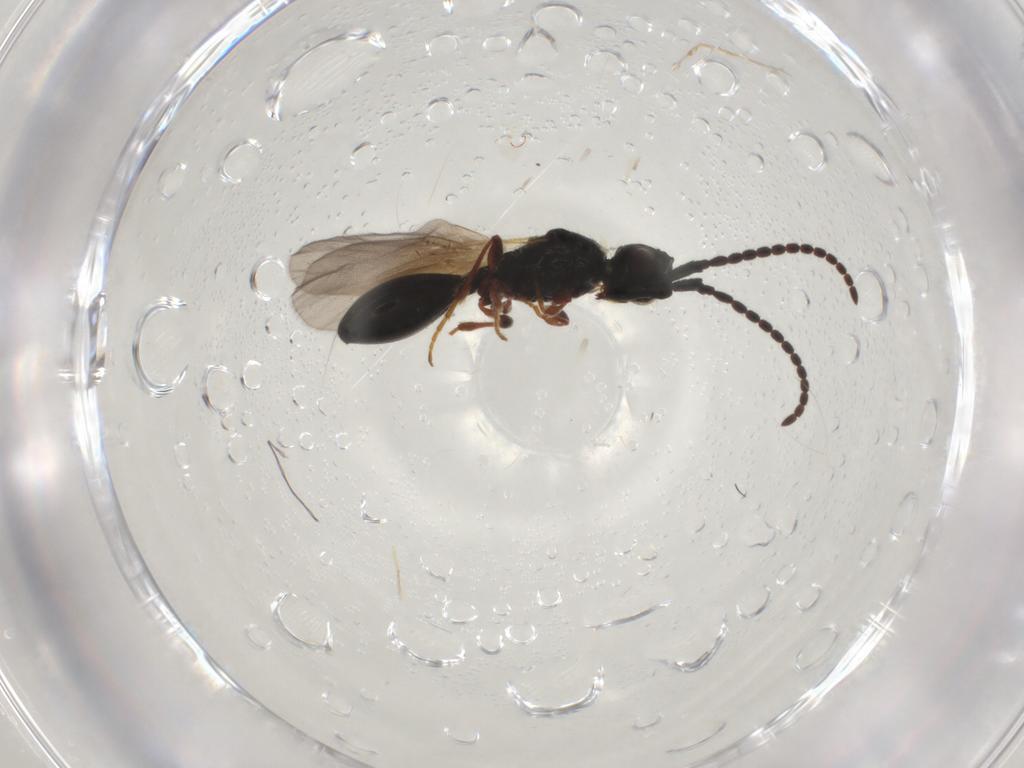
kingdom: Animalia
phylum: Arthropoda
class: Insecta
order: Hymenoptera
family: Diapriidae
